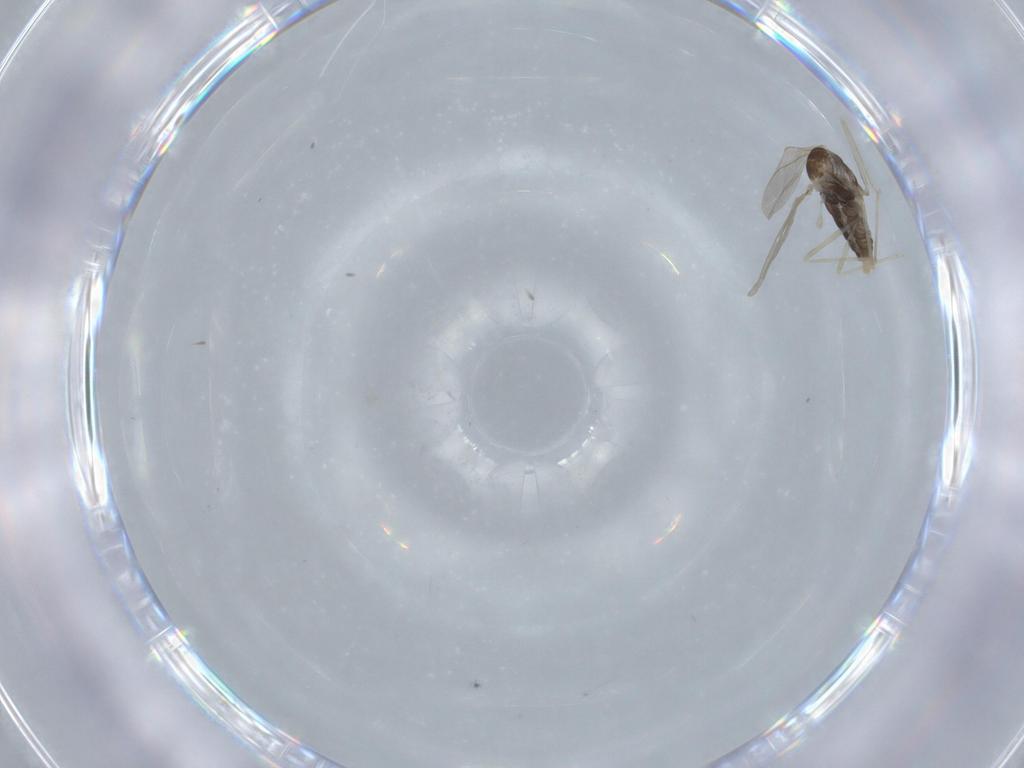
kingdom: Animalia
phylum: Arthropoda
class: Insecta
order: Diptera
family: Cecidomyiidae
